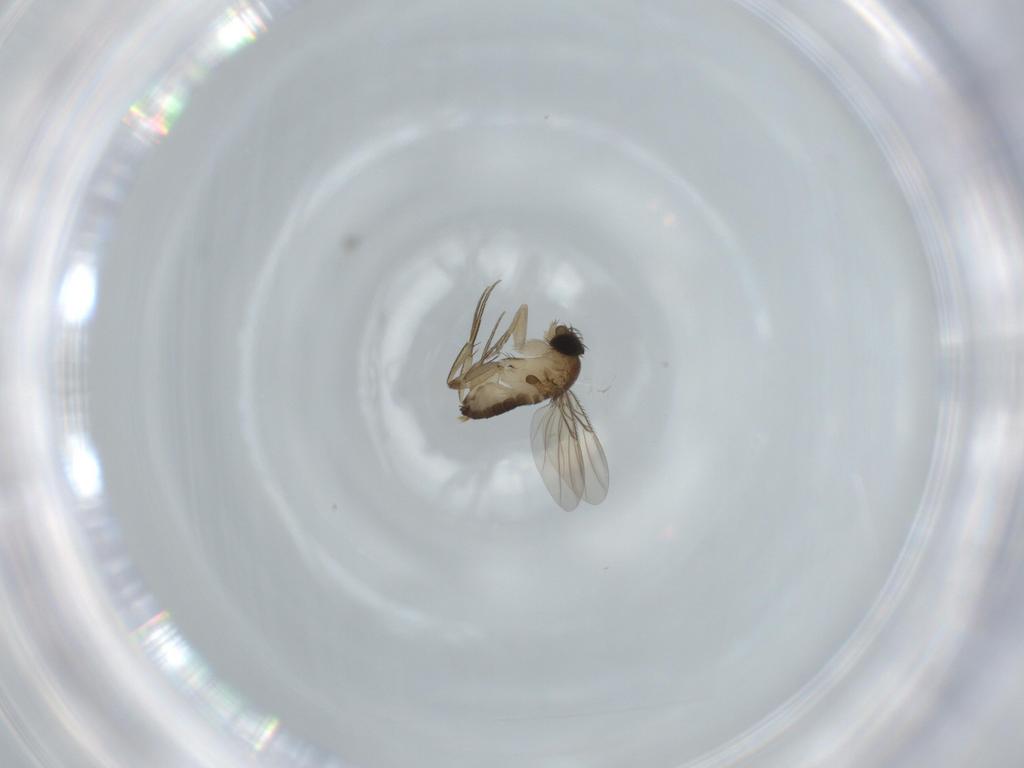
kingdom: Animalia
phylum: Arthropoda
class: Insecta
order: Diptera
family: Phoridae
